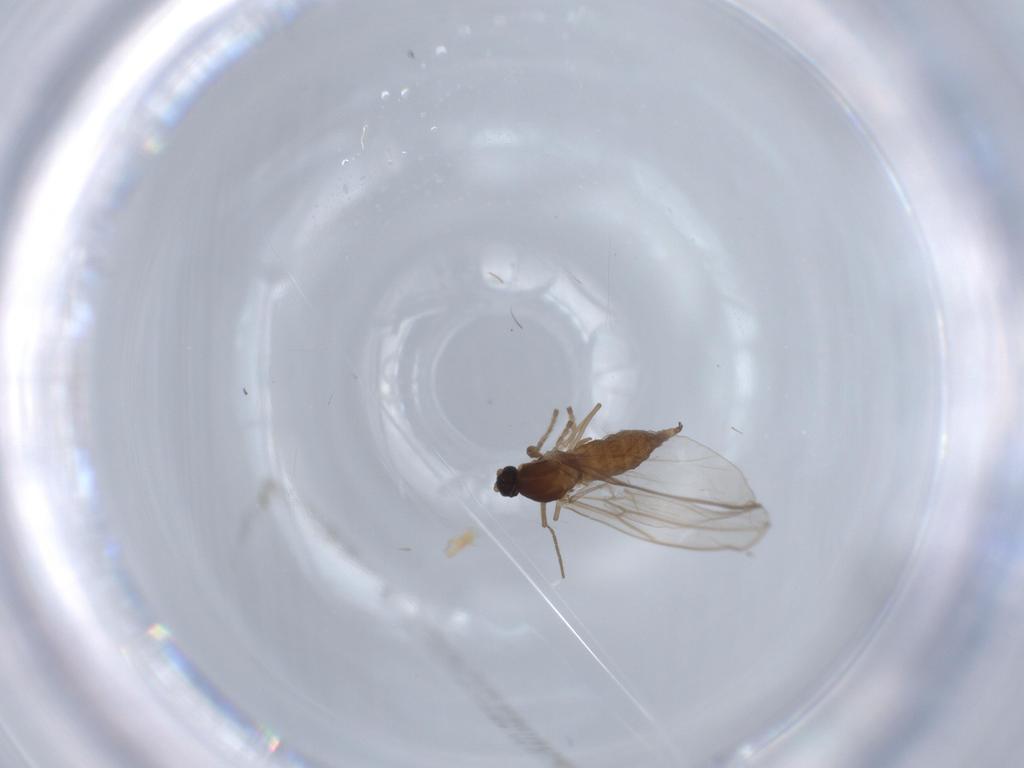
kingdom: Animalia
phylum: Arthropoda
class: Insecta
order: Diptera
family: Cecidomyiidae
